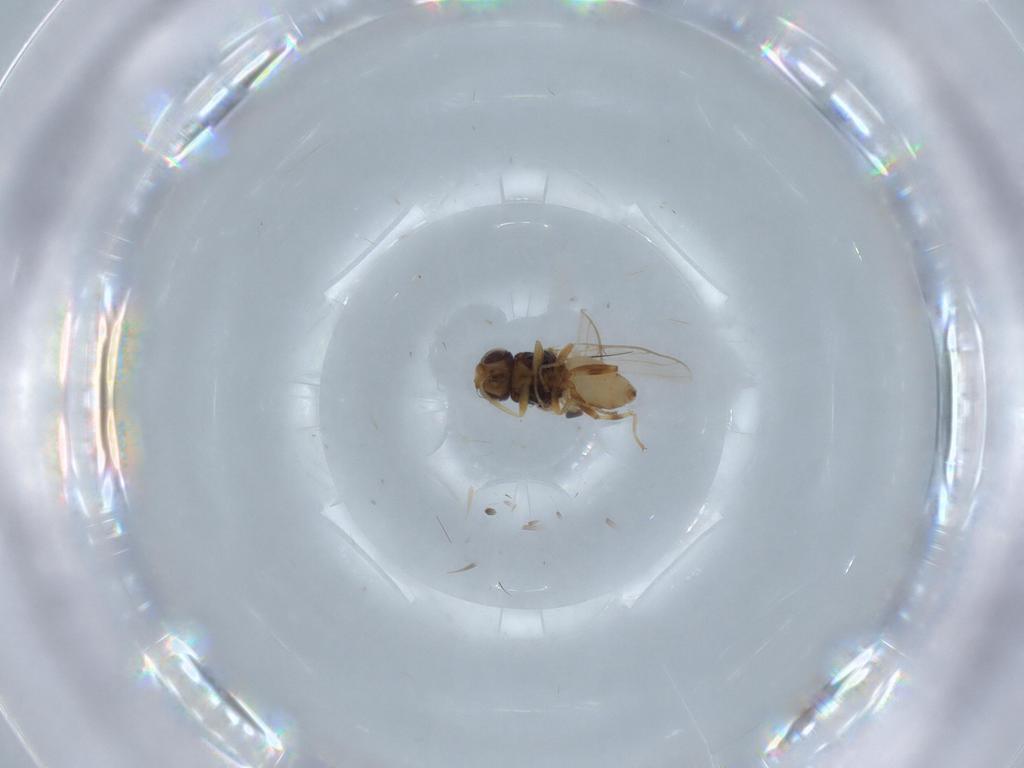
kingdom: Animalia
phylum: Arthropoda
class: Insecta
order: Diptera
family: Chloropidae
